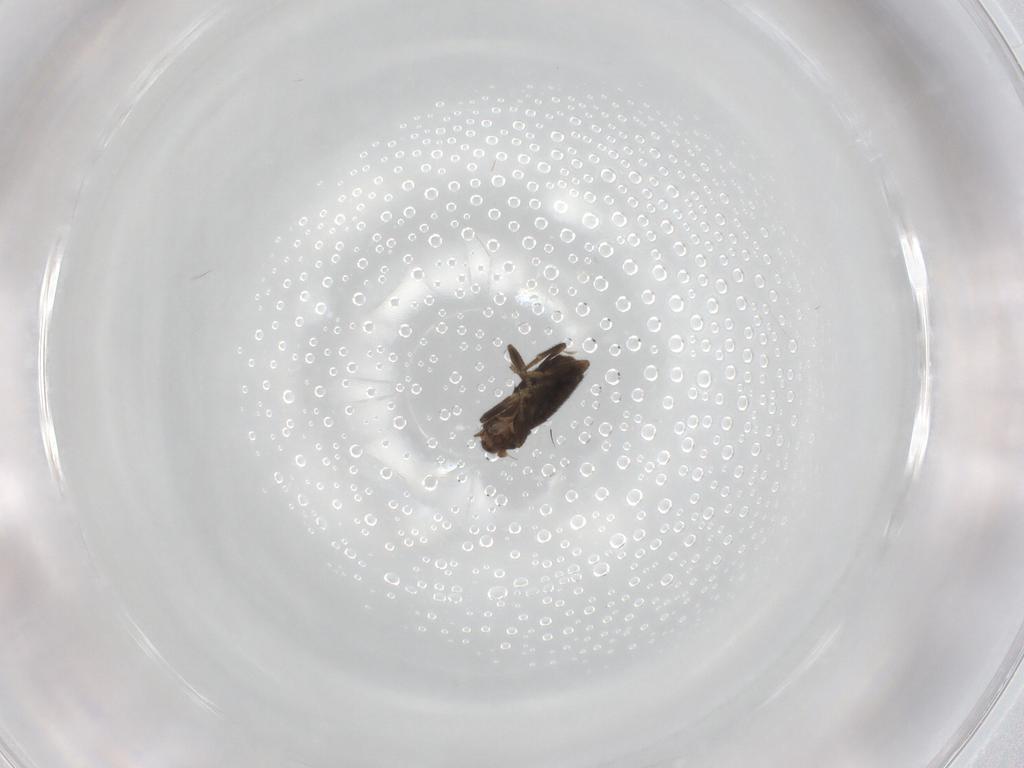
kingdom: Animalia
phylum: Arthropoda
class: Insecta
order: Diptera
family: Phoridae
